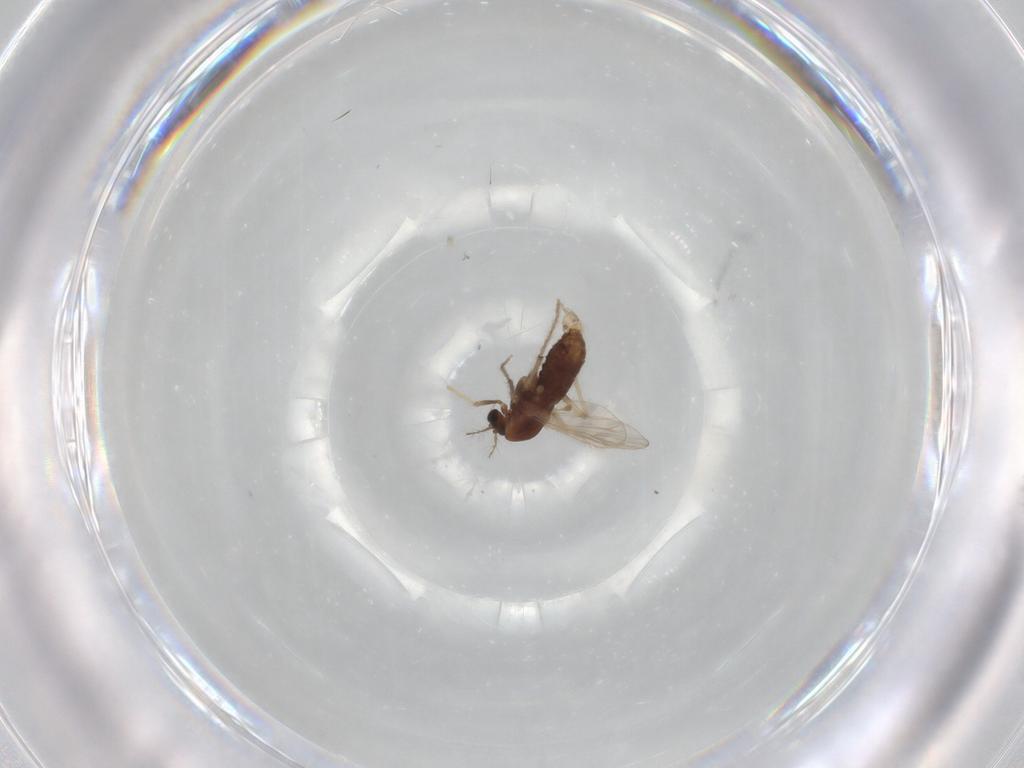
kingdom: Animalia
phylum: Arthropoda
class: Insecta
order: Diptera
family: Chironomidae
